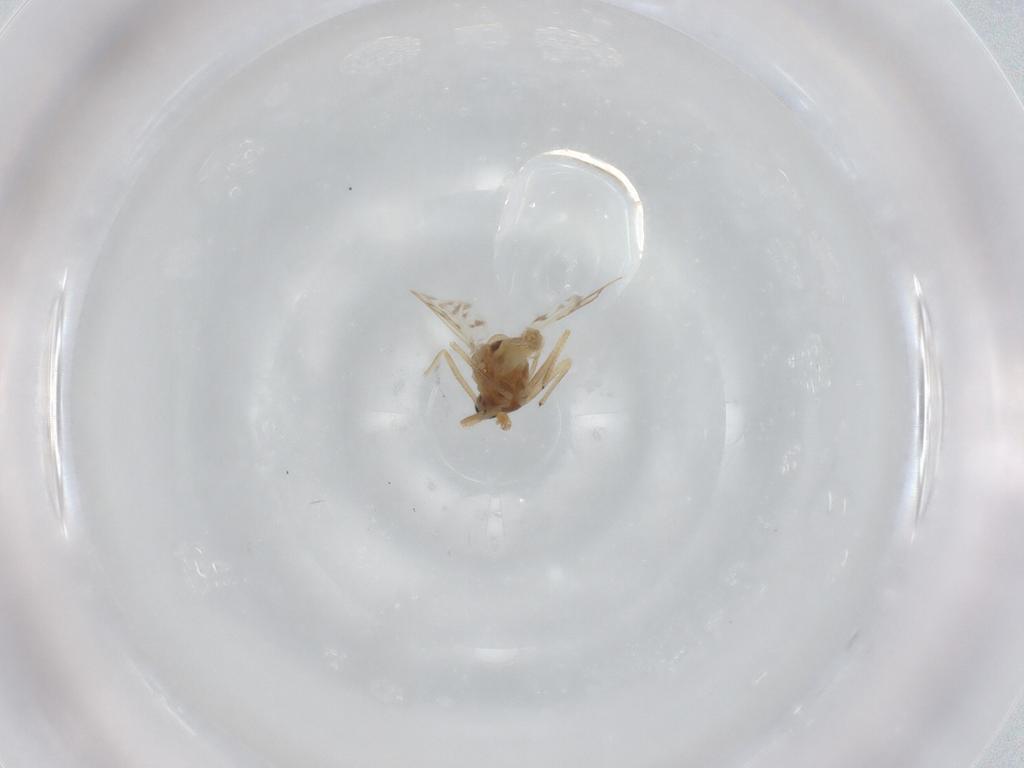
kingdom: Animalia
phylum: Arthropoda
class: Insecta
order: Diptera
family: Chironomidae
